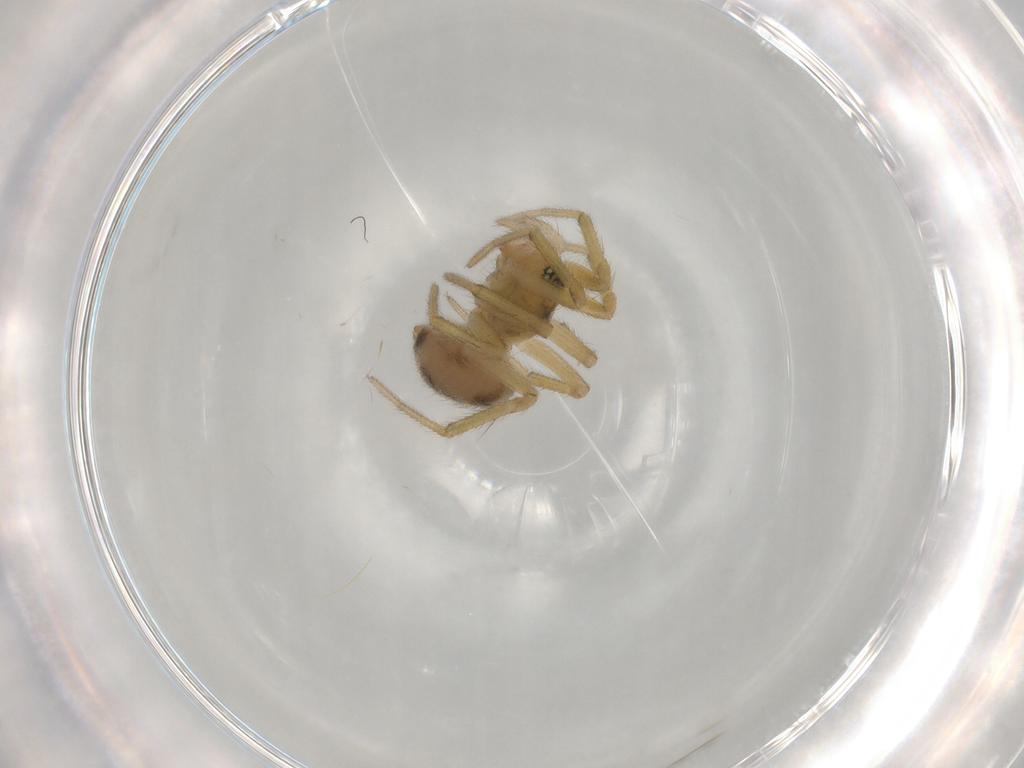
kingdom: Animalia
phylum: Arthropoda
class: Arachnida
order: Araneae
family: Linyphiidae
